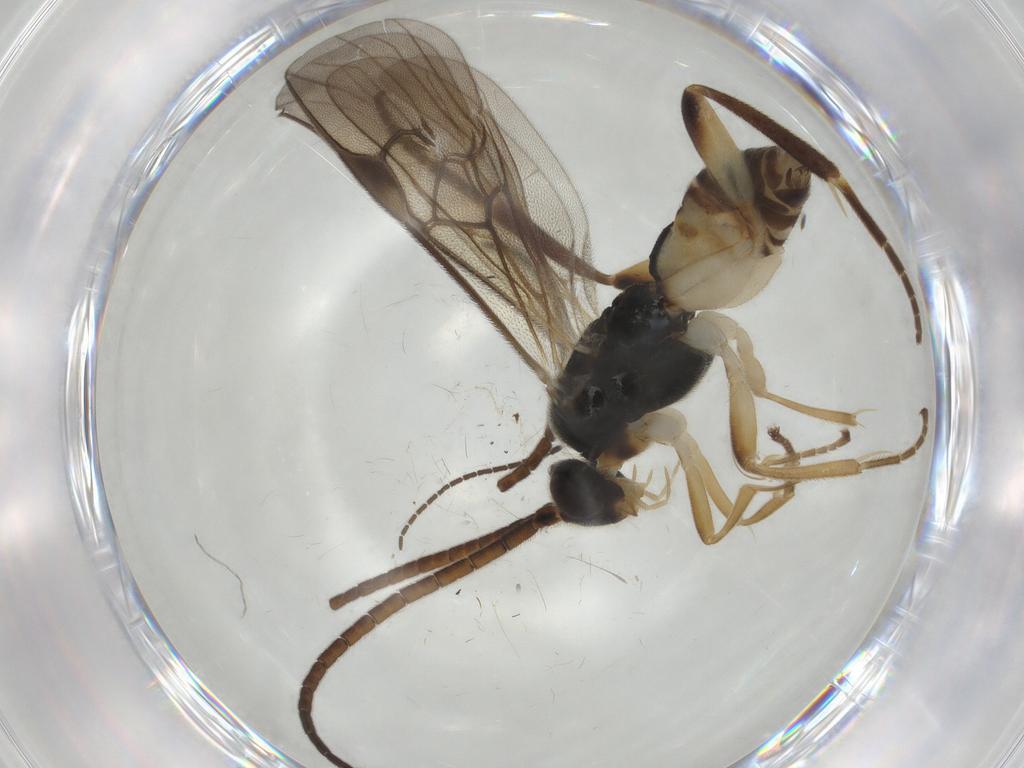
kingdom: Animalia
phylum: Arthropoda
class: Insecta
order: Hymenoptera
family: Braconidae
